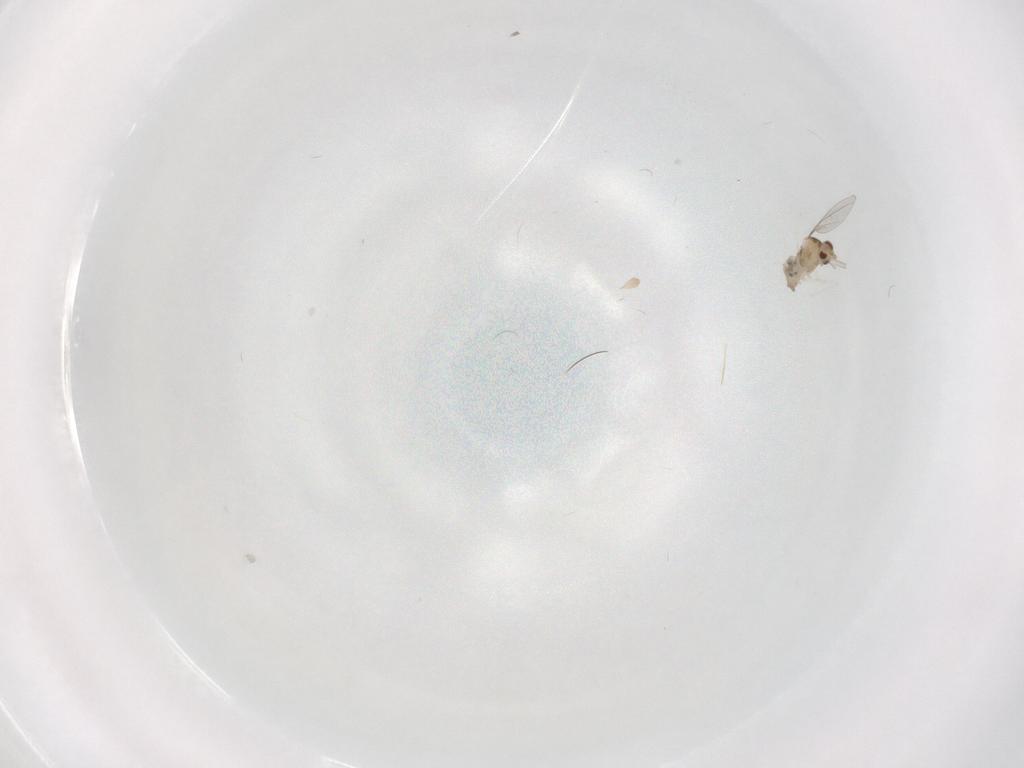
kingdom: Animalia
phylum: Arthropoda
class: Insecta
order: Diptera
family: Cecidomyiidae
